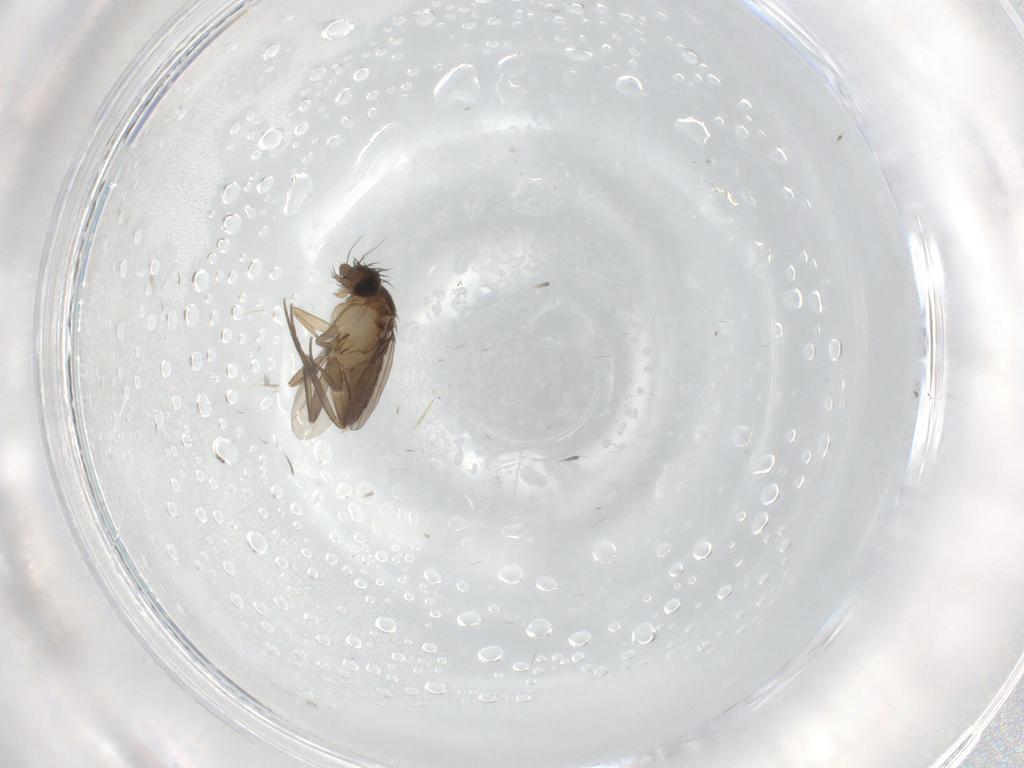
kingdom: Animalia
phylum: Arthropoda
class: Insecta
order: Diptera
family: Phoridae
